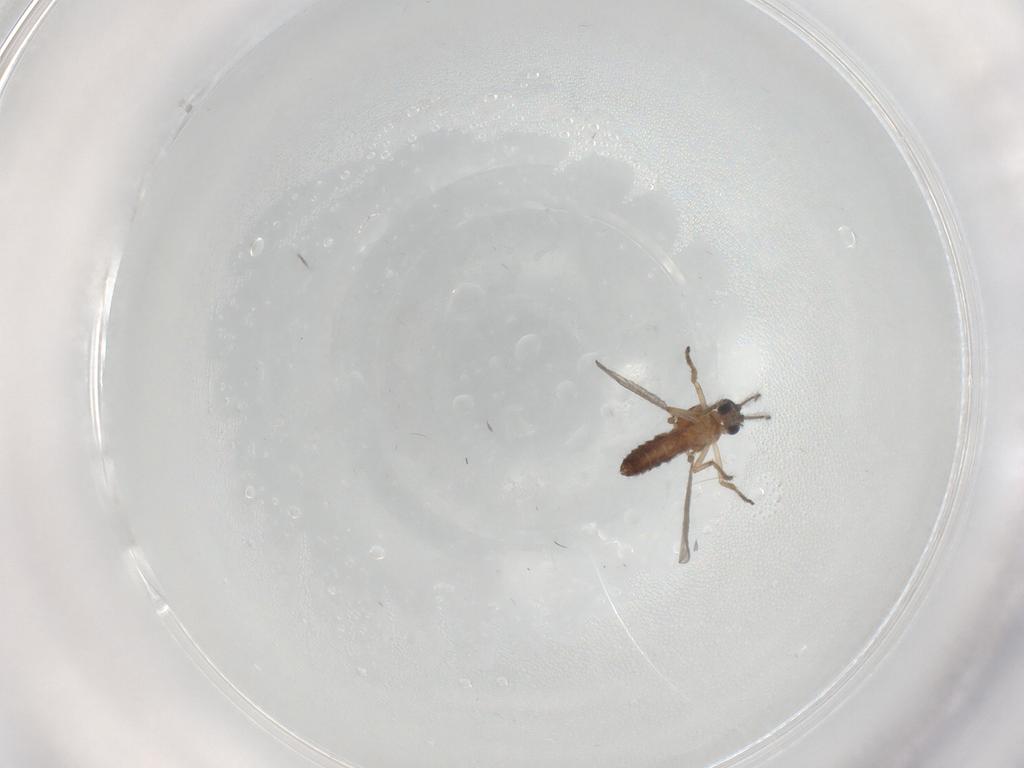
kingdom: Animalia
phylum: Arthropoda
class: Insecta
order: Diptera
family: Ceratopogonidae
